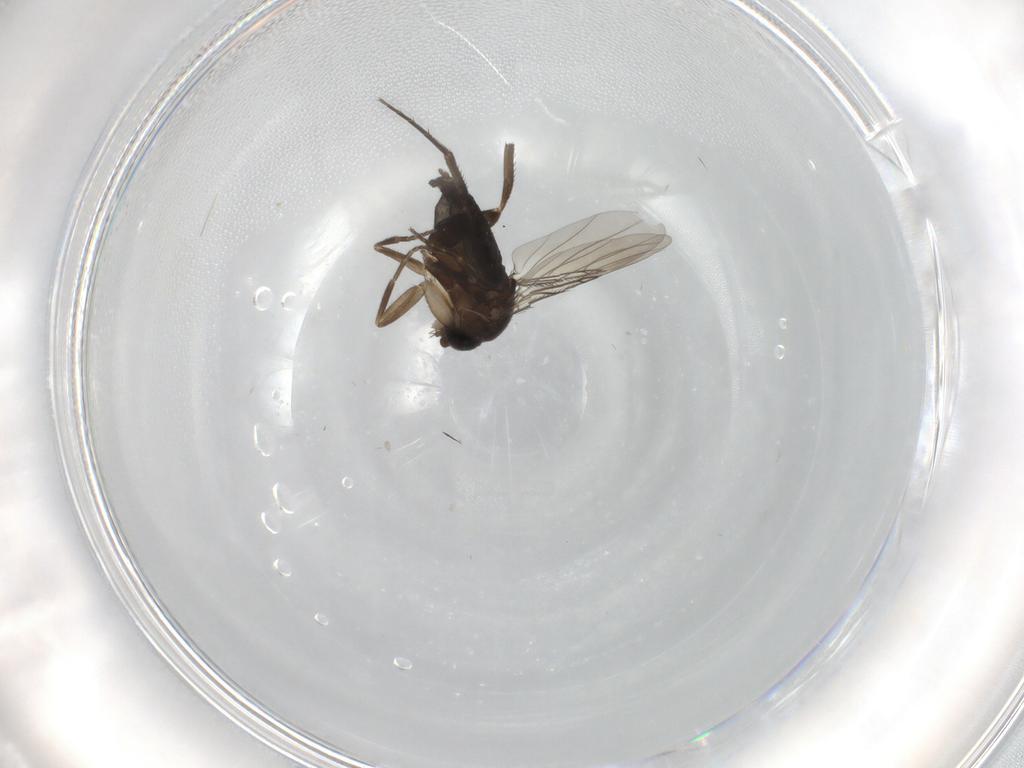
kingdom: Animalia
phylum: Arthropoda
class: Insecta
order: Diptera
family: Phoridae
